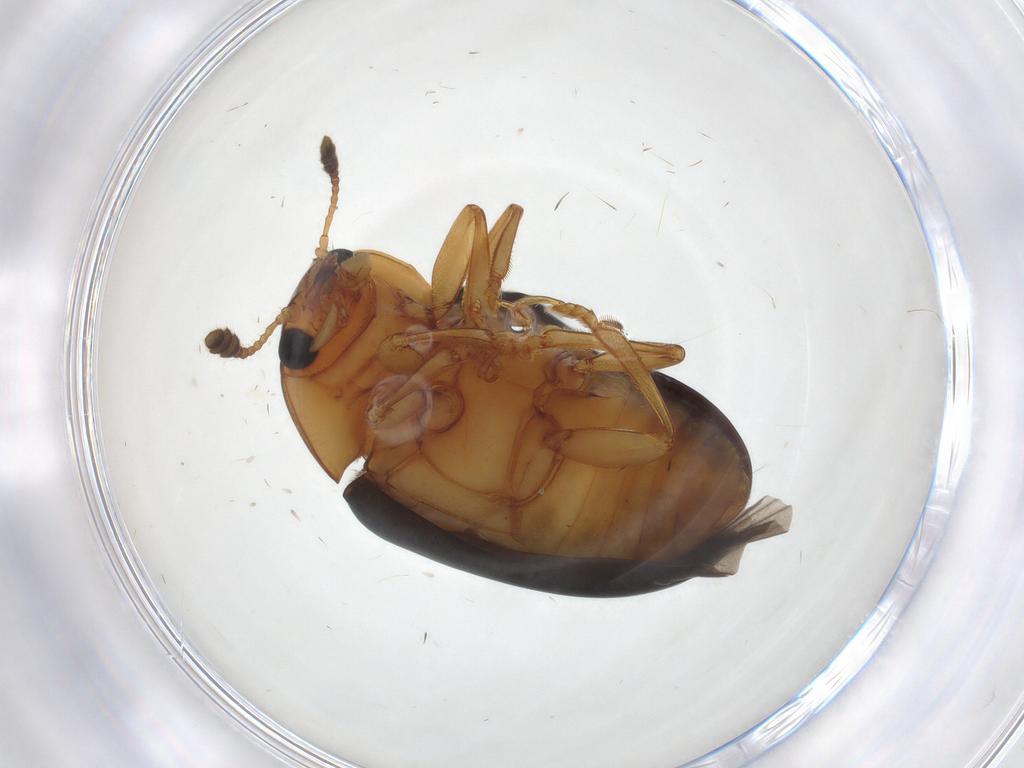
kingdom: Animalia
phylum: Arthropoda
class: Insecta
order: Coleoptera
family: Erotylidae
